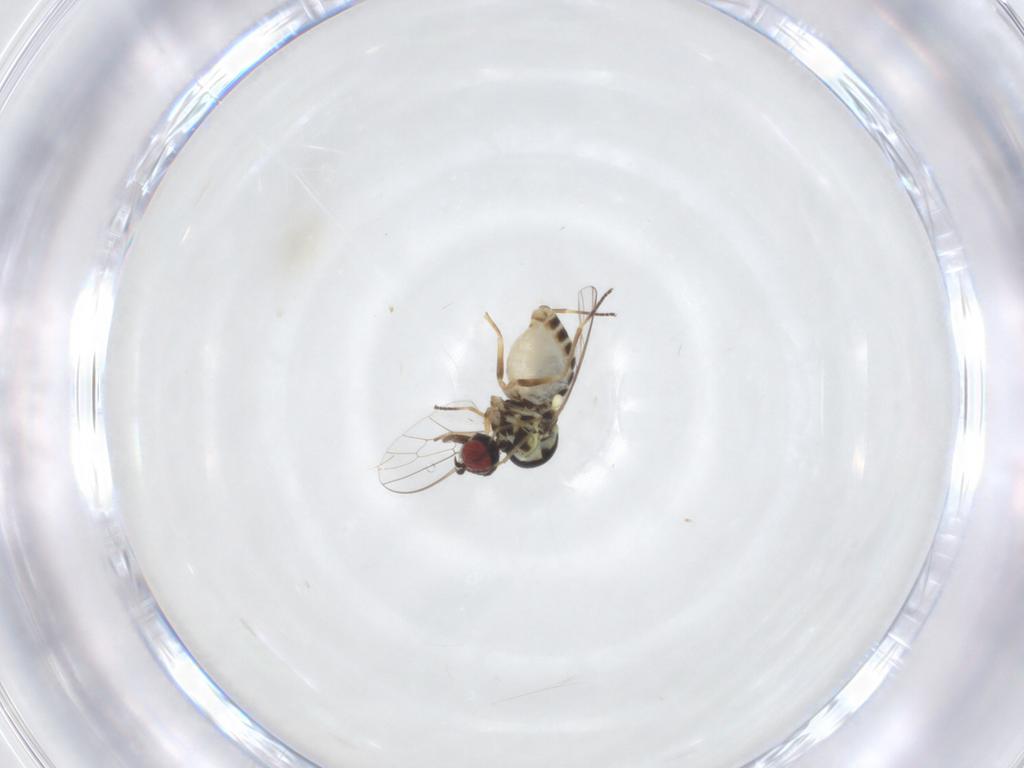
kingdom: Animalia
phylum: Arthropoda
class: Insecta
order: Diptera
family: Bombyliidae
